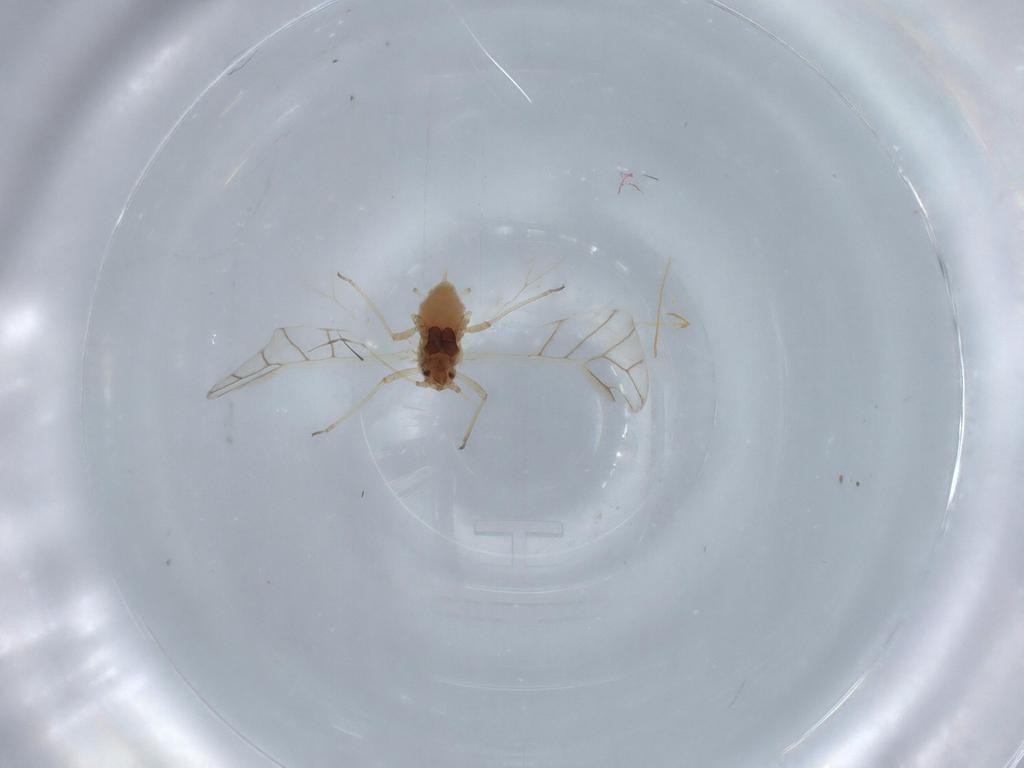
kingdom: Animalia
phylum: Arthropoda
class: Insecta
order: Hemiptera
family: Aphididae
